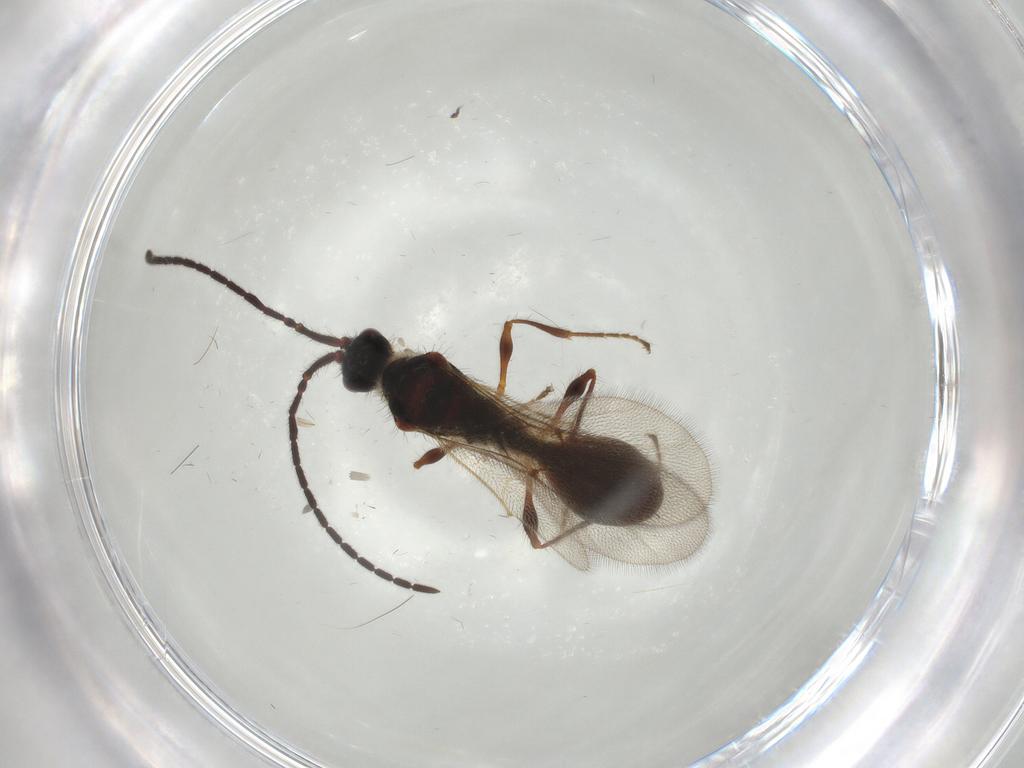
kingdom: Animalia
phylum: Arthropoda
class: Insecta
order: Hymenoptera
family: Diapriidae
